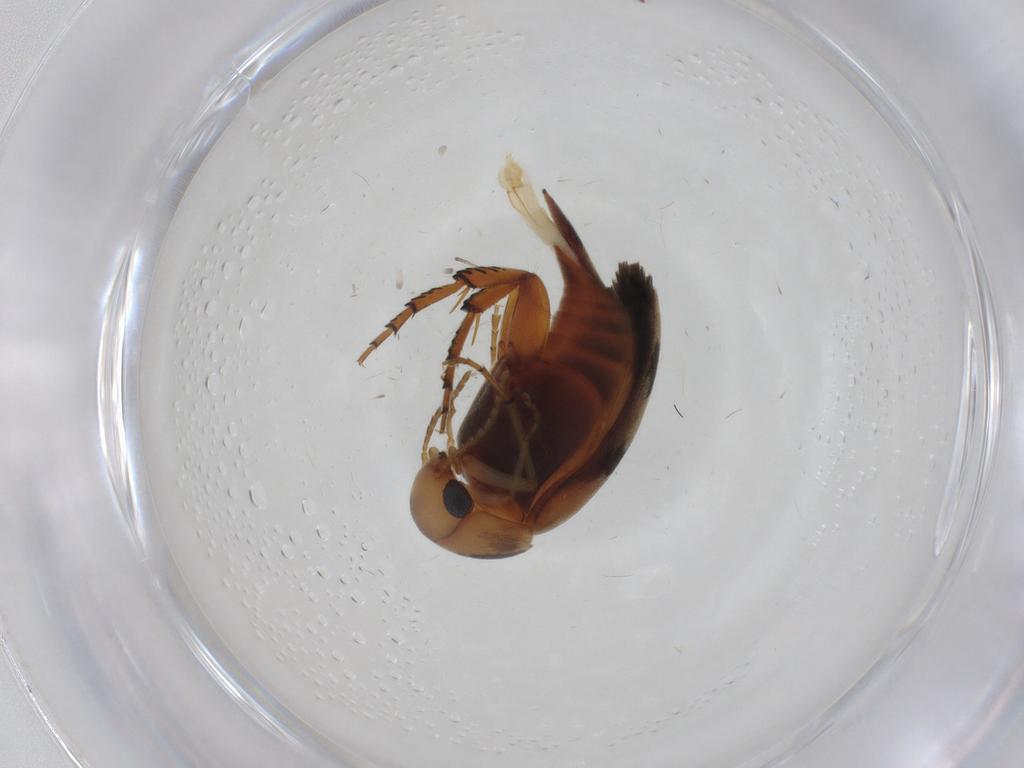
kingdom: Animalia
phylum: Arthropoda
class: Insecta
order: Coleoptera
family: Mordellidae
